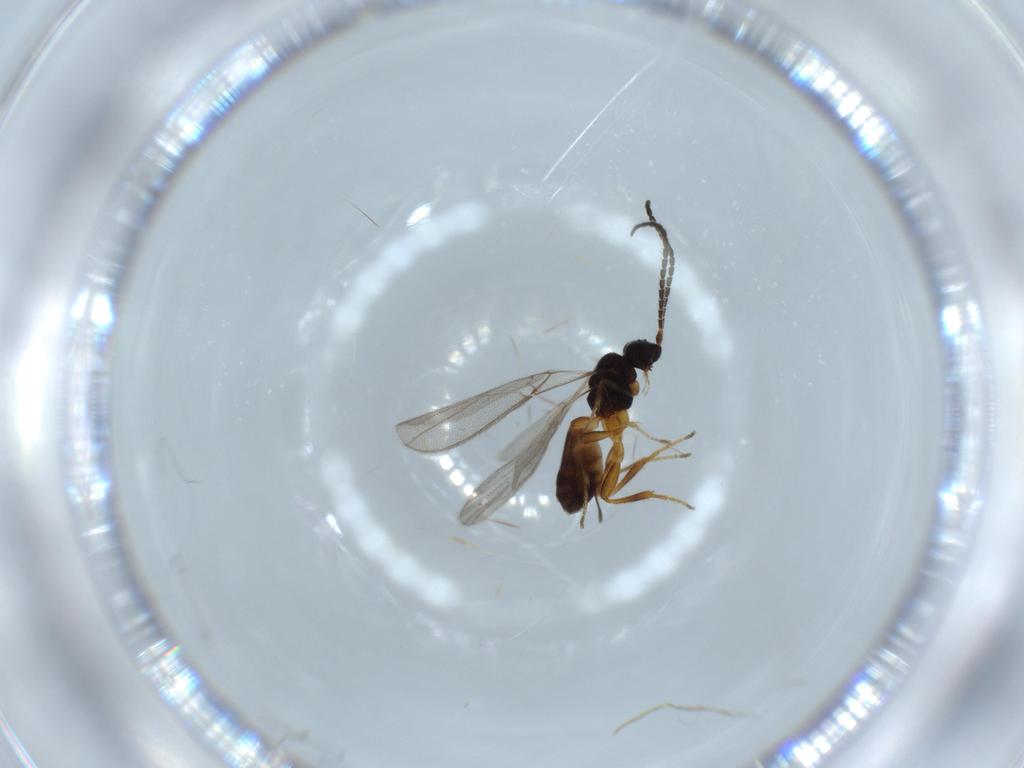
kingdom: Animalia
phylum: Arthropoda
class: Insecta
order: Hymenoptera
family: Braconidae
